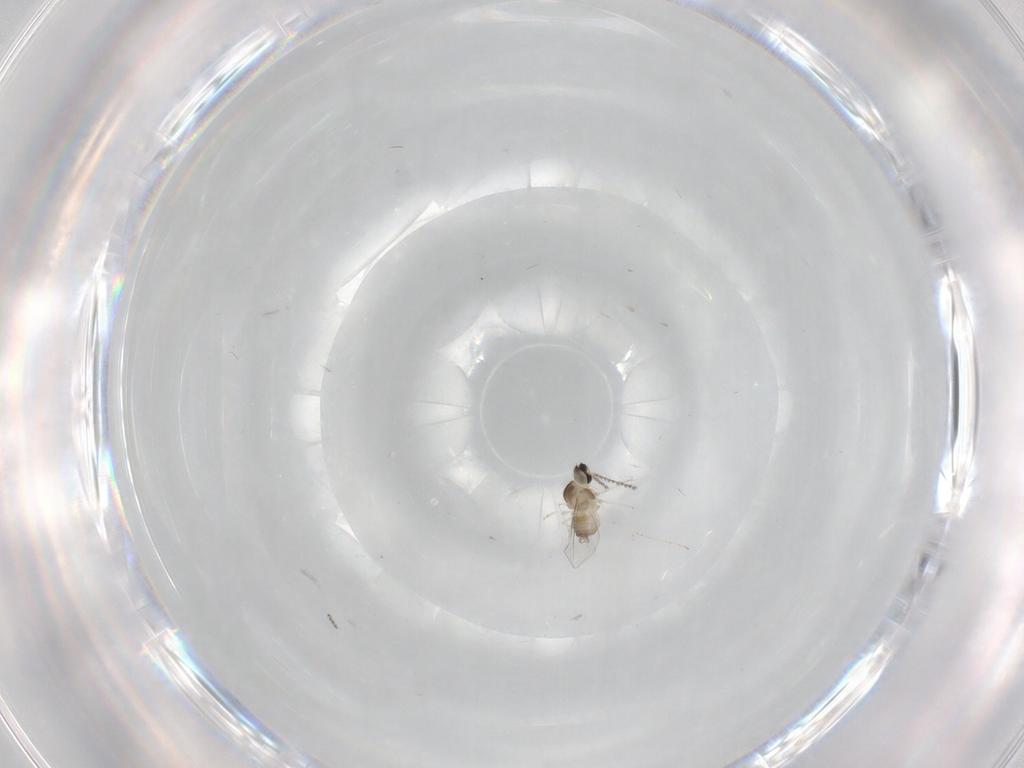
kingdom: Animalia
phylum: Arthropoda
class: Insecta
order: Diptera
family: Cecidomyiidae
